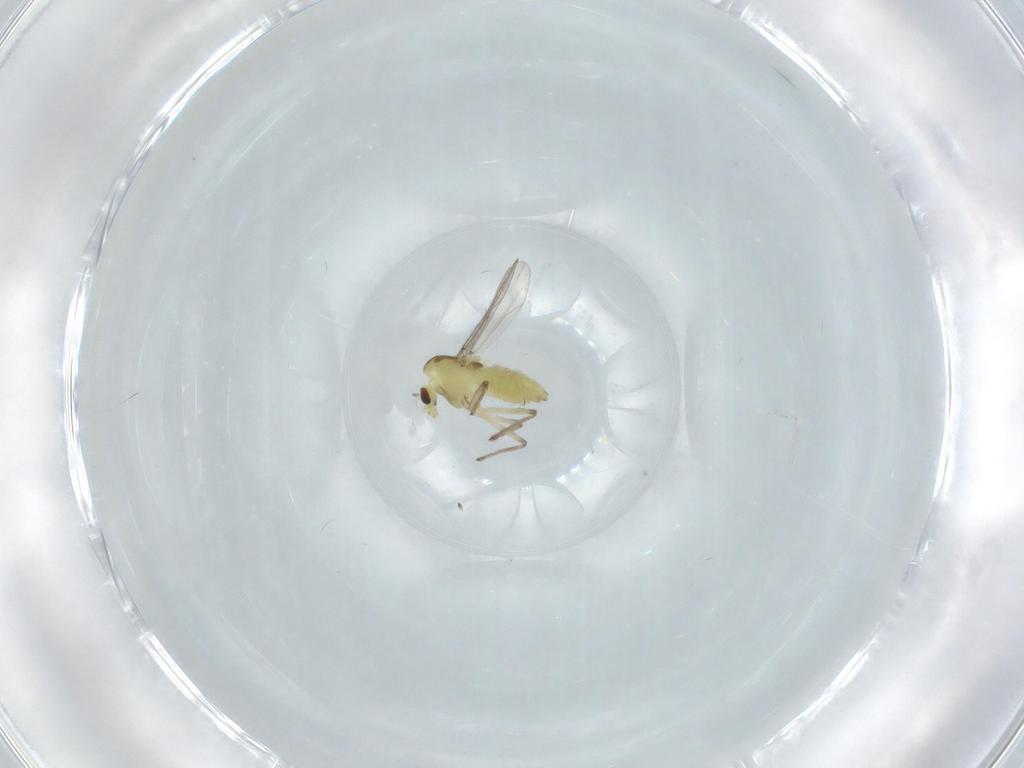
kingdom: Animalia
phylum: Arthropoda
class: Insecta
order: Diptera
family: Chironomidae
